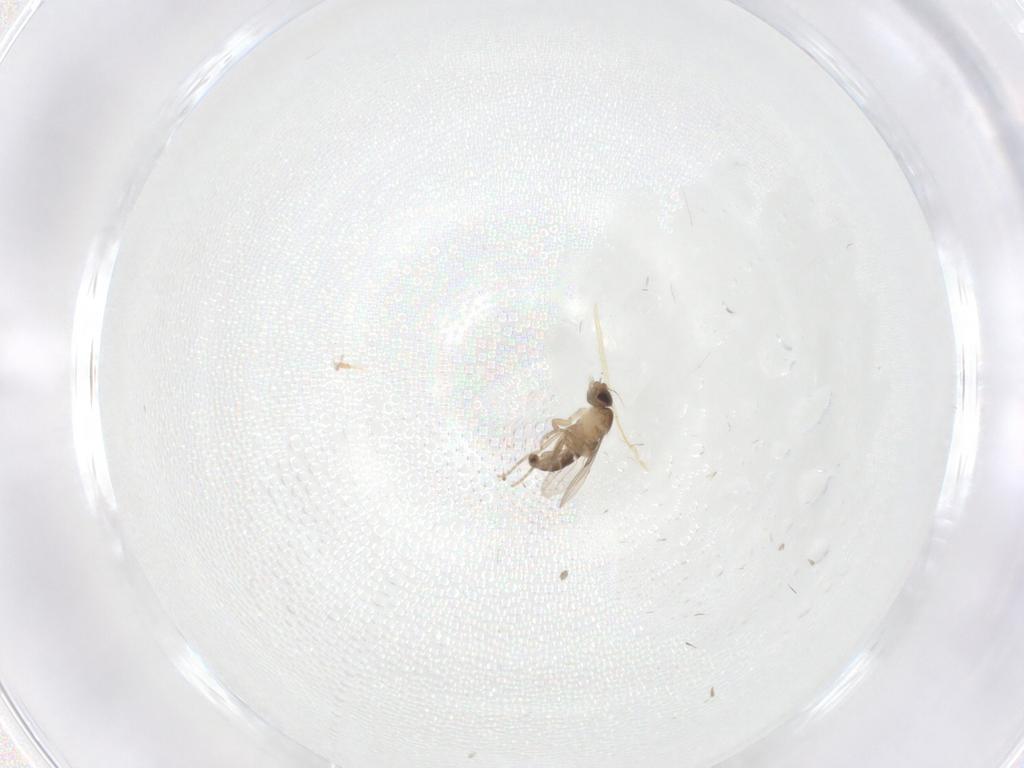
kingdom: Animalia
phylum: Arthropoda
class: Insecta
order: Diptera
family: Phoridae
